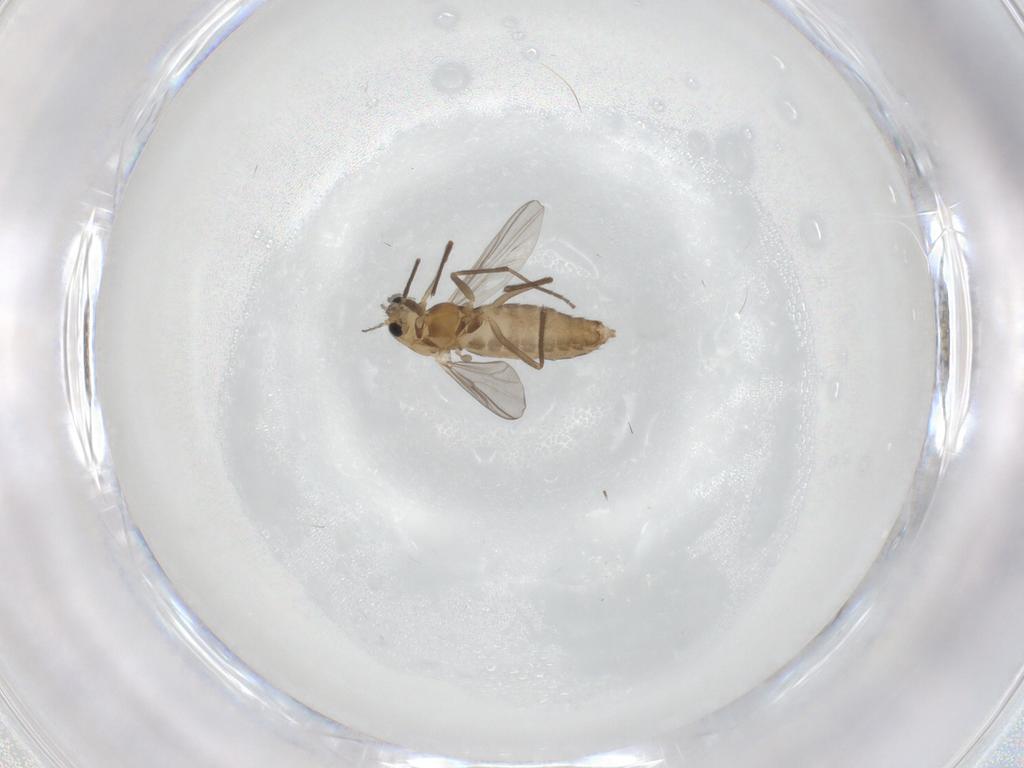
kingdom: Animalia
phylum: Arthropoda
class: Insecta
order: Diptera
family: Chironomidae
